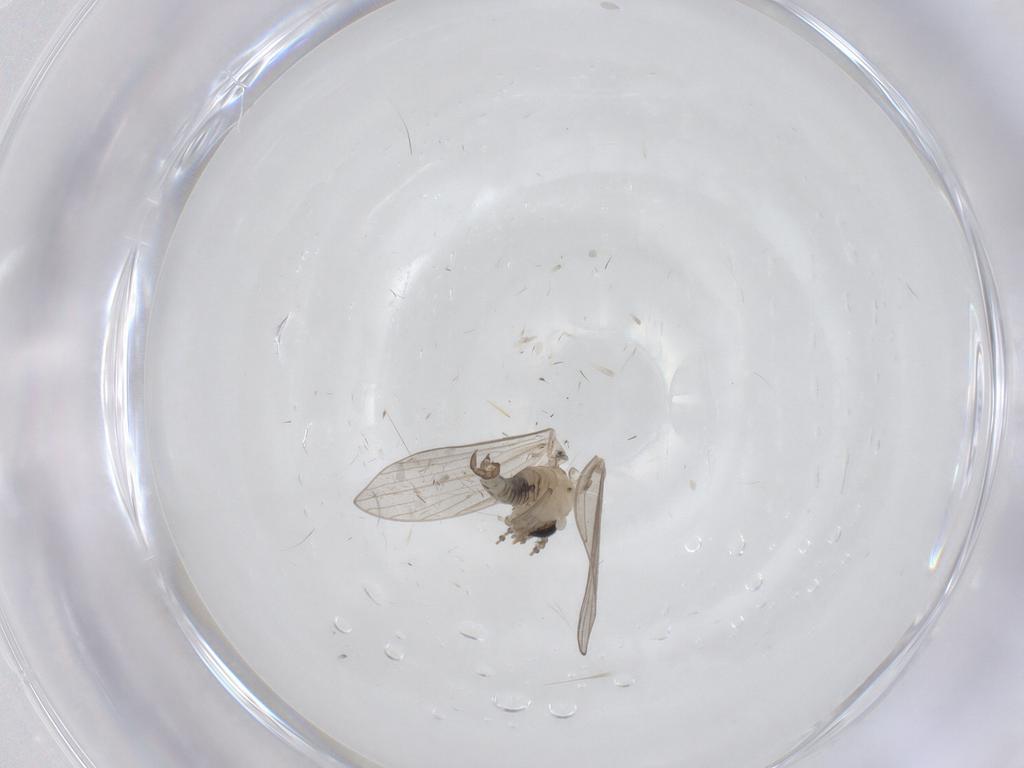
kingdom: Animalia
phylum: Arthropoda
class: Insecta
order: Diptera
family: Psychodidae
